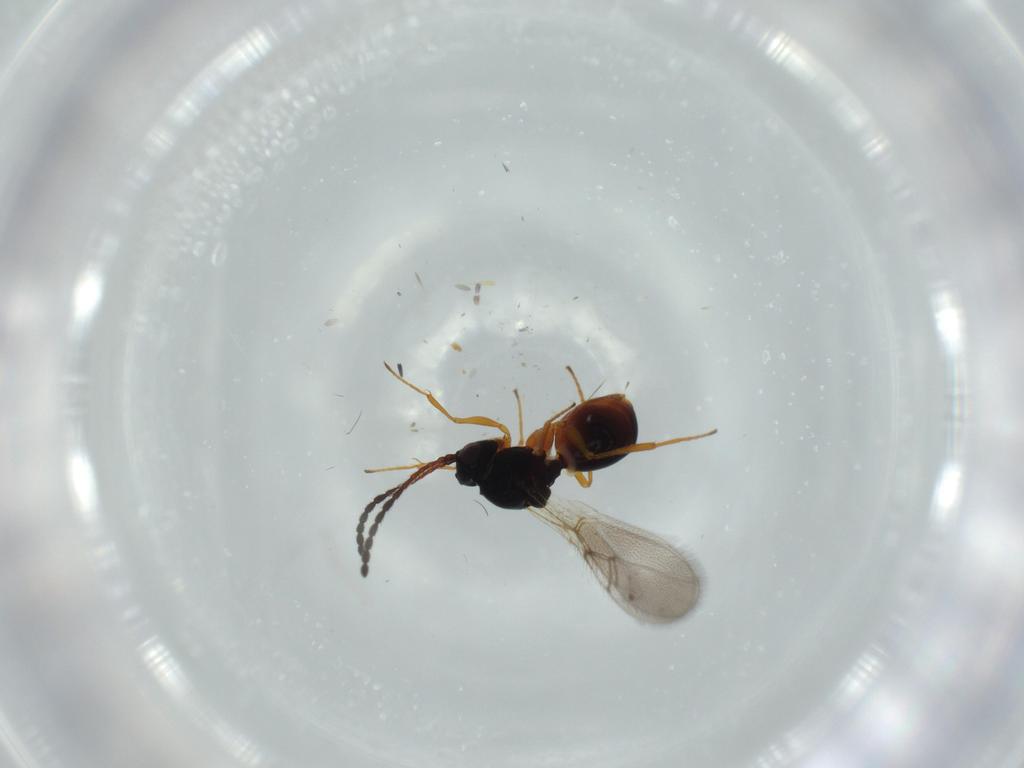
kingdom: Animalia
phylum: Arthropoda
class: Insecta
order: Hymenoptera
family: Figitidae
